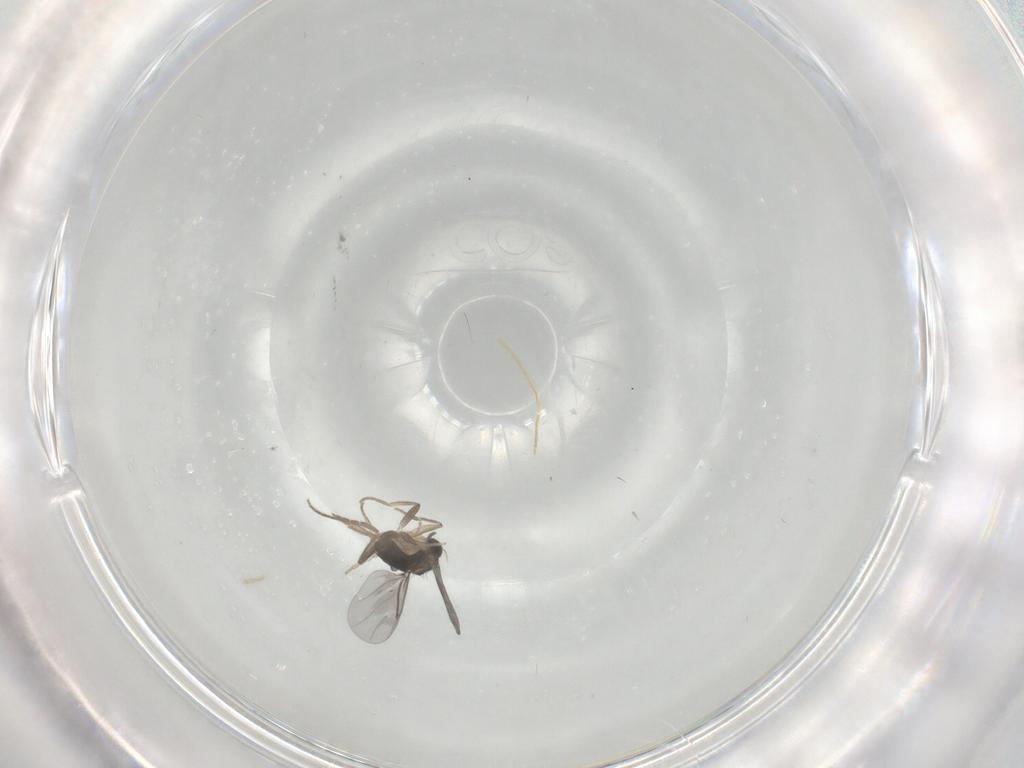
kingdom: Animalia
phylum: Arthropoda
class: Insecta
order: Diptera
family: Chironomidae
